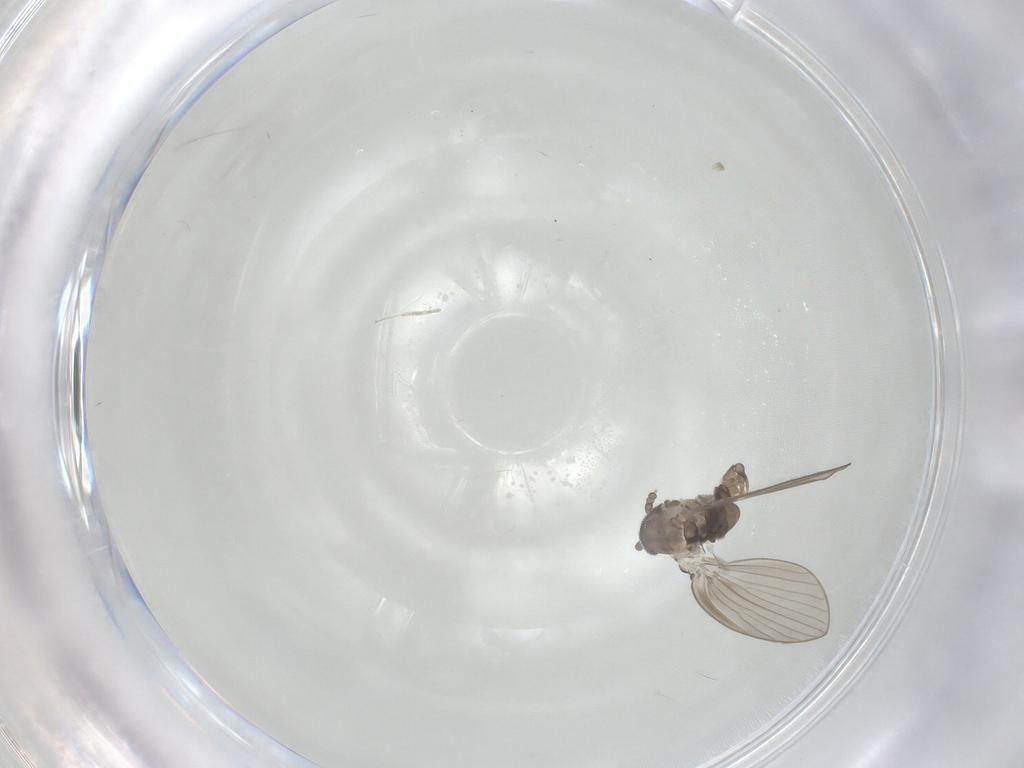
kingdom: Animalia
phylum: Arthropoda
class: Insecta
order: Diptera
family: Psychodidae
